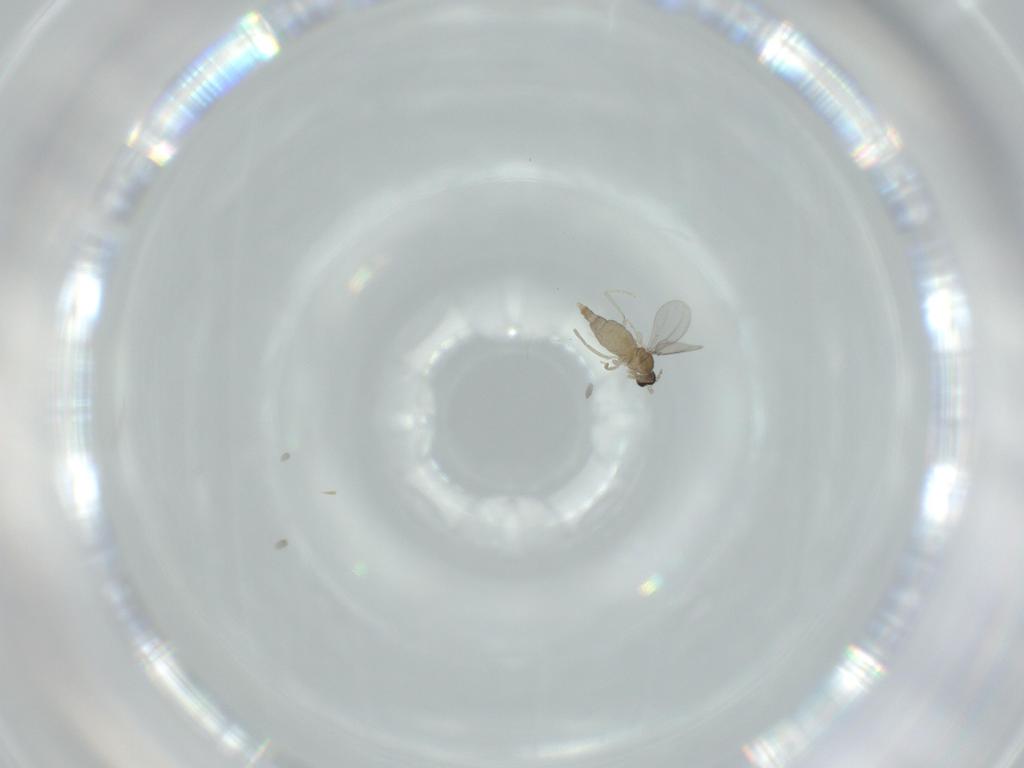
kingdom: Animalia
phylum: Arthropoda
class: Insecta
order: Diptera
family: Cecidomyiidae
